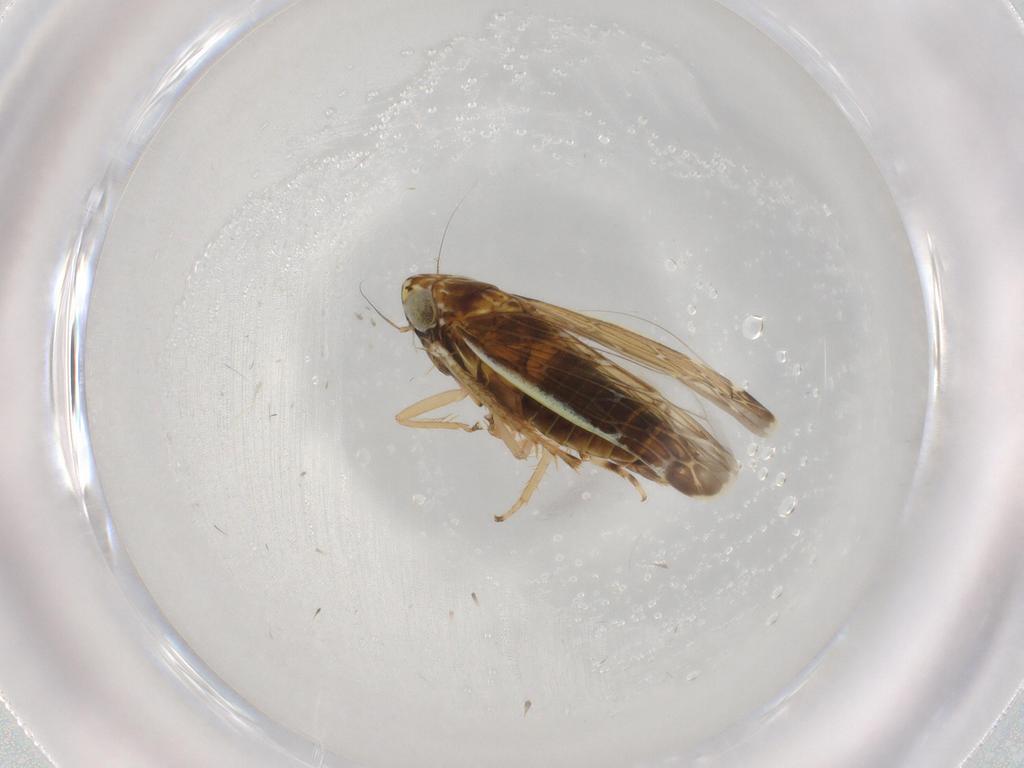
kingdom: Animalia
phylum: Arthropoda
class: Insecta
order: Hemiptera
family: Cicadellidae
